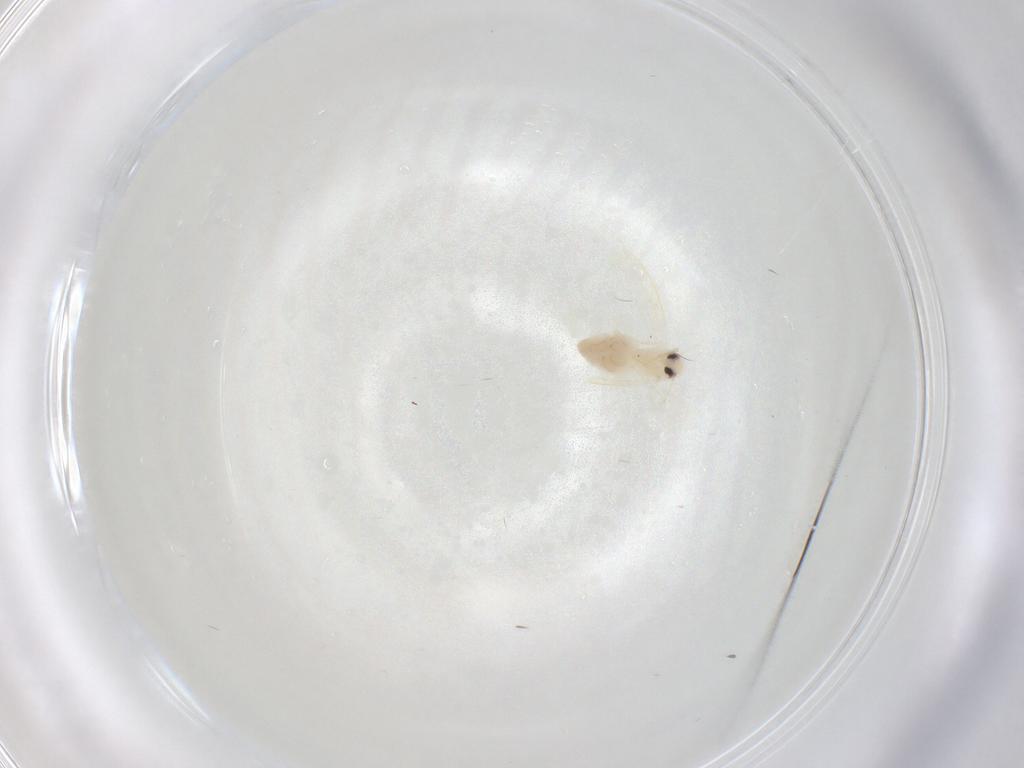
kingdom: Animalia
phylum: Arthropoda
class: Insecta
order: Hemiptera
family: Aleyrodidae
